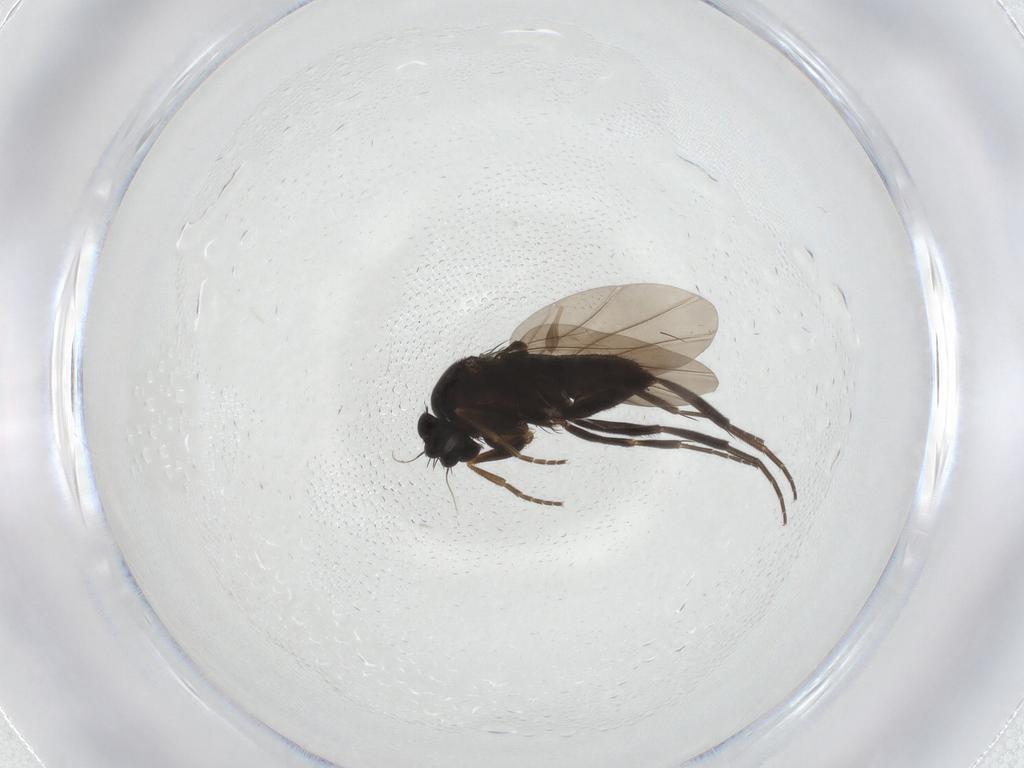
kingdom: Animalia
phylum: Arthropoda
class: Insecta
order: Diptera
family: Phoridae
